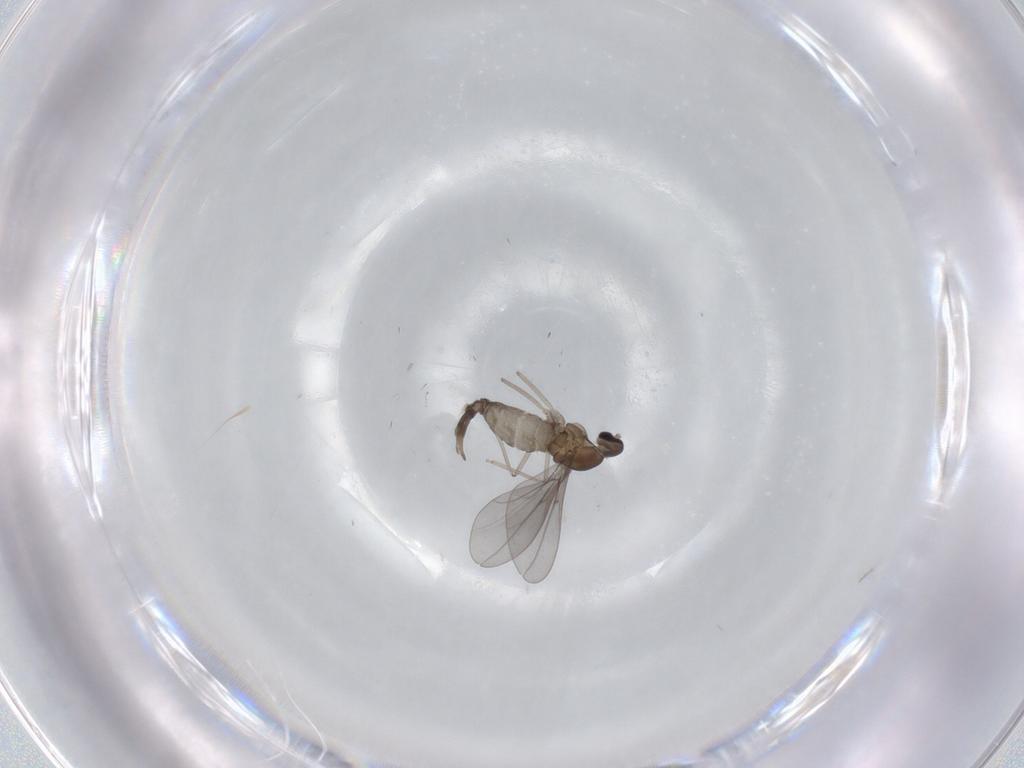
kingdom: Animalia
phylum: Arthropoda
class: Insecta
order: Diptera
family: Cecidomyiidae
